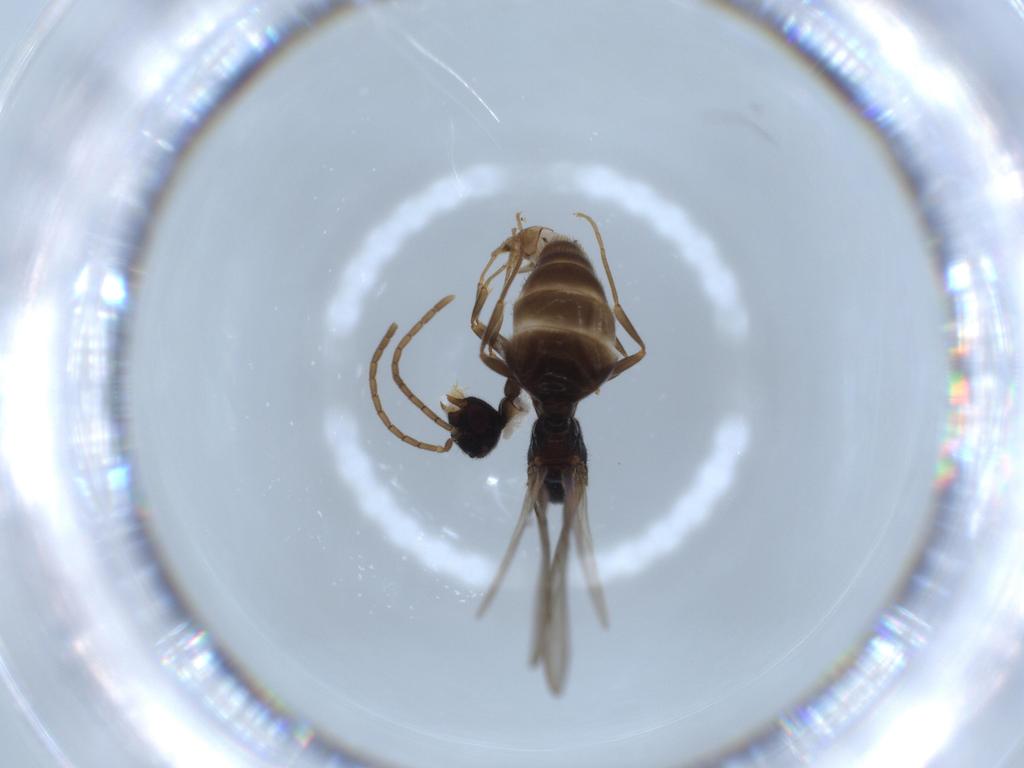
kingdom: Animalia
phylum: Arthropoda
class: Insecta
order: Hymenoptera
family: Formicidae
